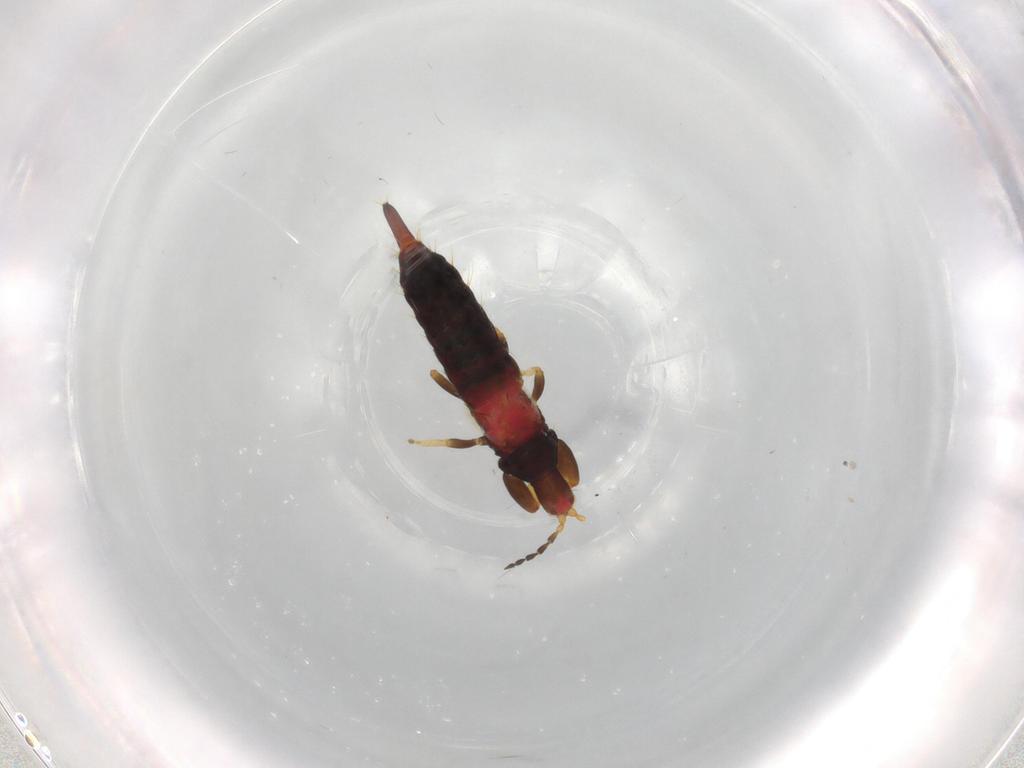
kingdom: Animalia
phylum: Arthropoda
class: Insecta
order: Thysanoptera
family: Phlaeothripidae
